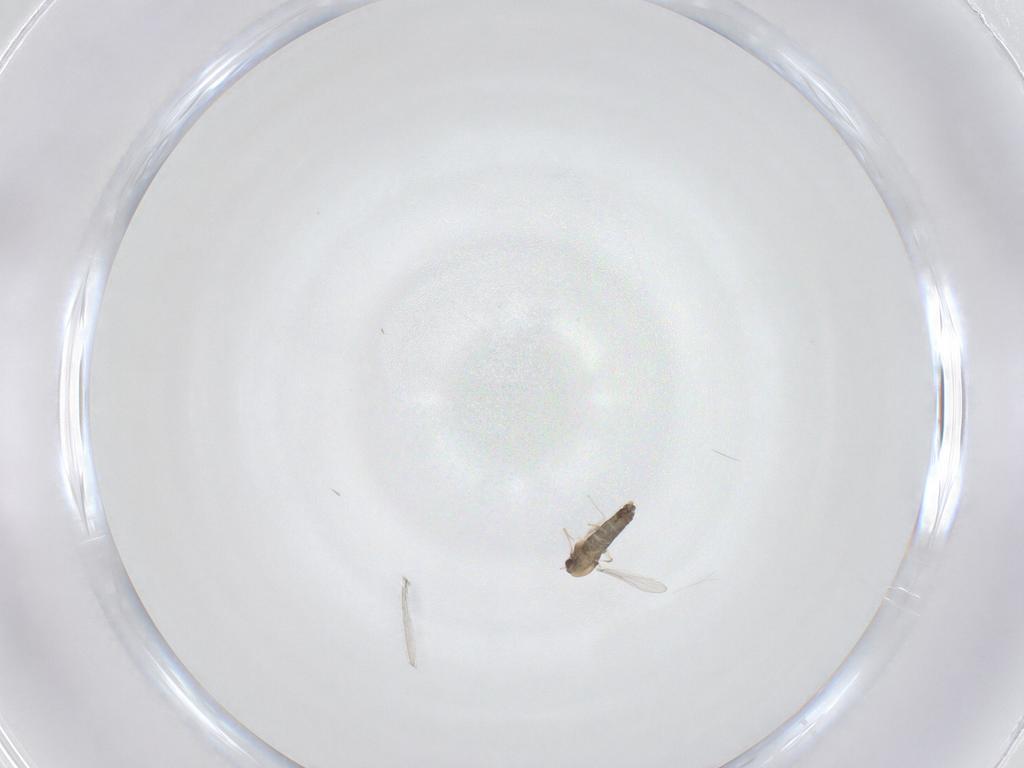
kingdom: Animalia
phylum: Arthropoda
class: Insecta
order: Diptera
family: Chironomidae
